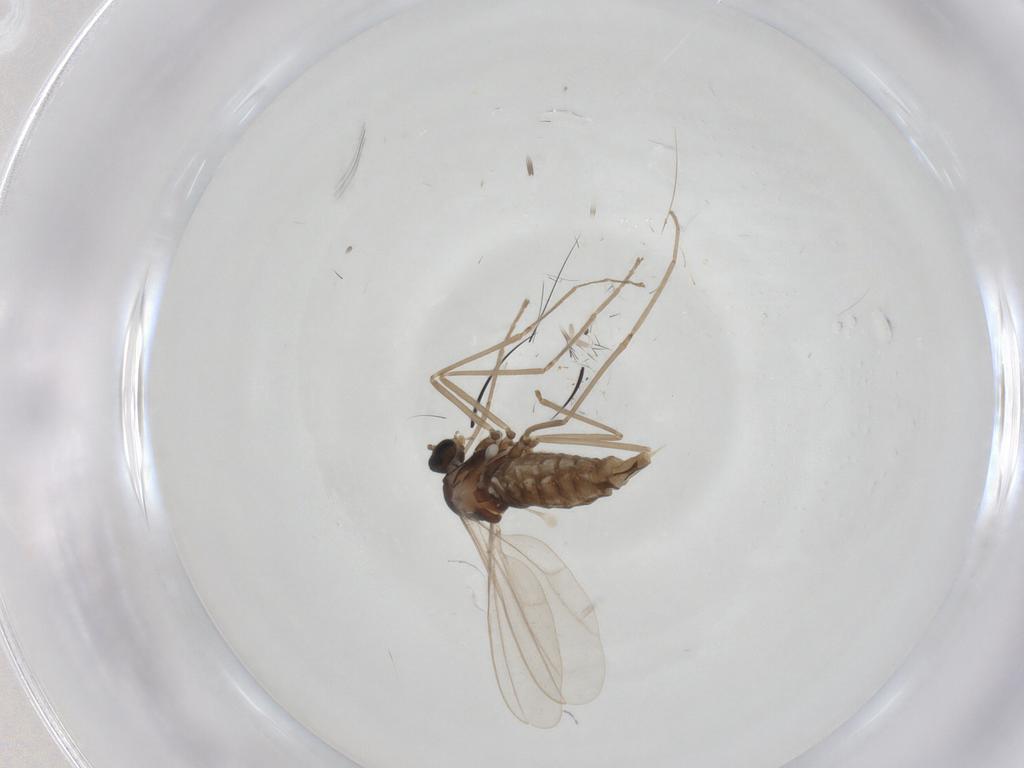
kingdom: Animalia
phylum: Arthropoda
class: Insecta
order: Diptera
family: Cecidomyiidae
